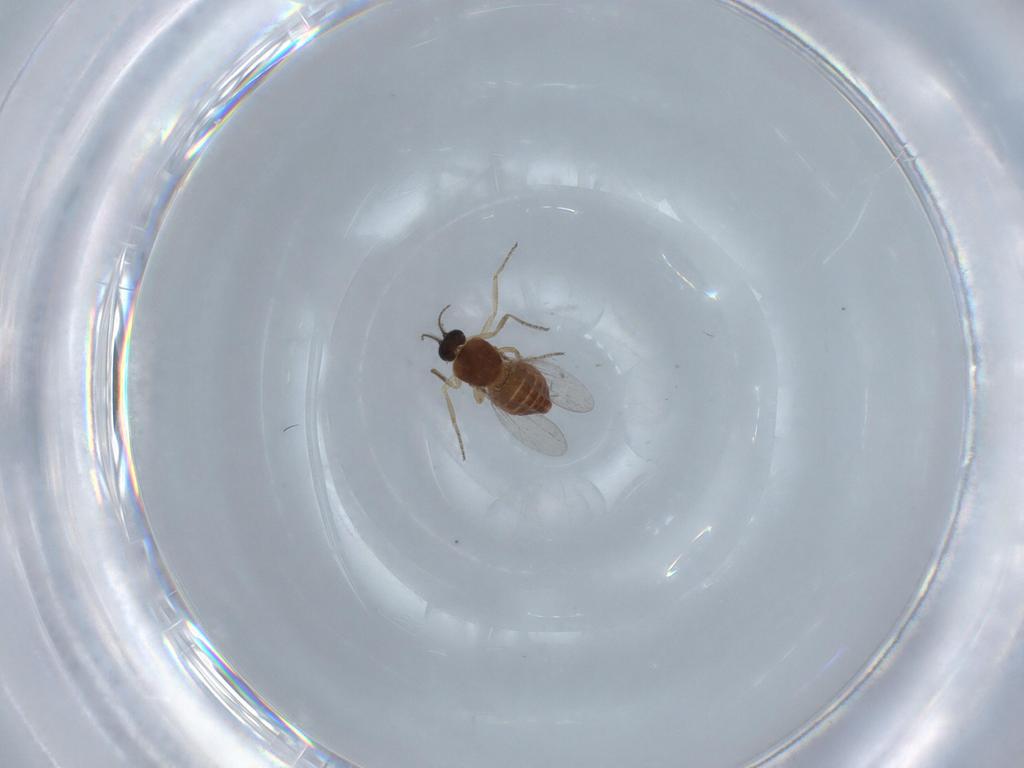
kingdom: Animalia
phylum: Arthropoda
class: Insecta
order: Diptera
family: Ceratopogonidae
